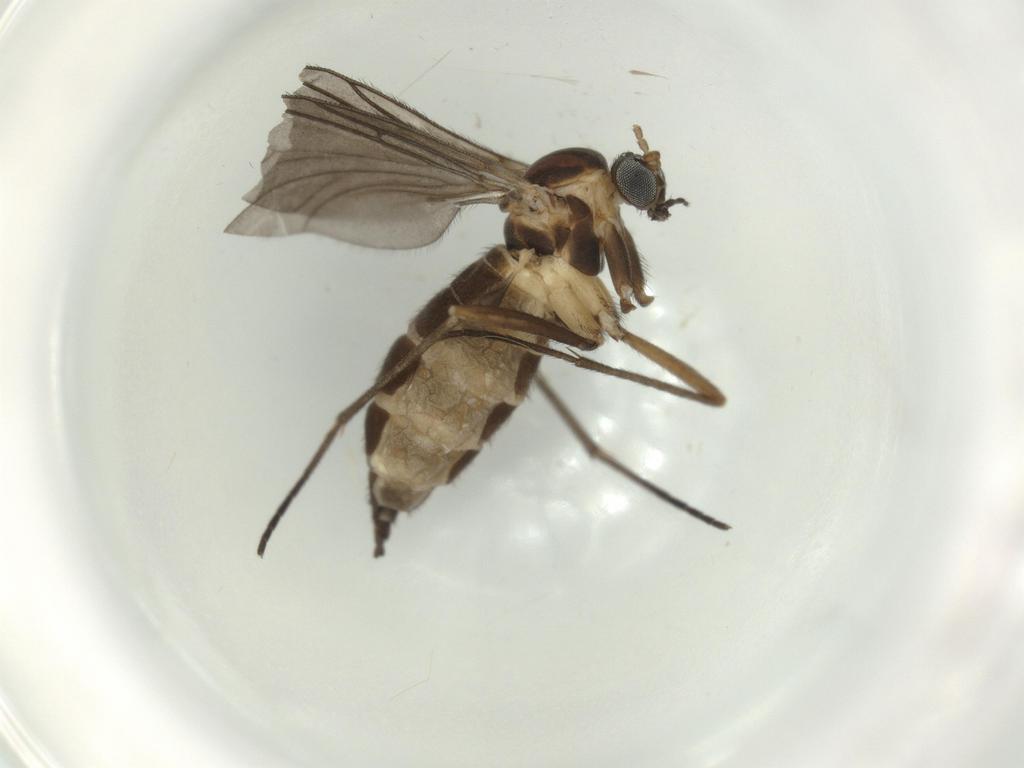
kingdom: Animalia
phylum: Arthropoda
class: Insecta
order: Diptera
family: Sciaridae
